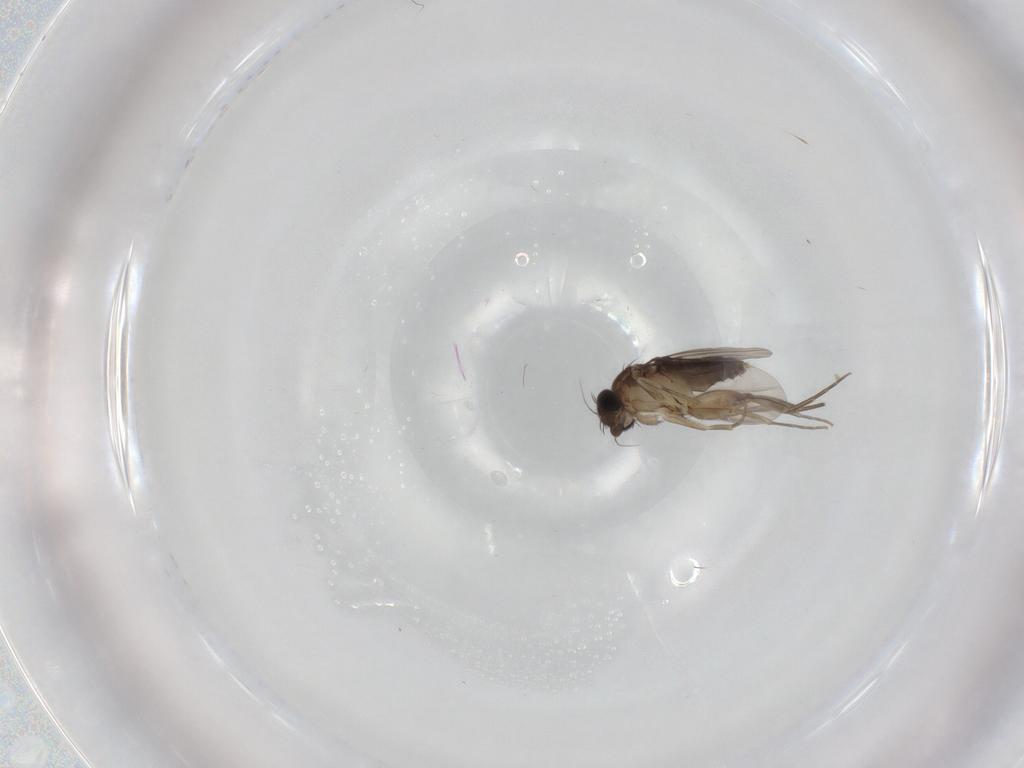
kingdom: Animalia
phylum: Arthropoda
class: Insecta
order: Diptera
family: Phoridae
